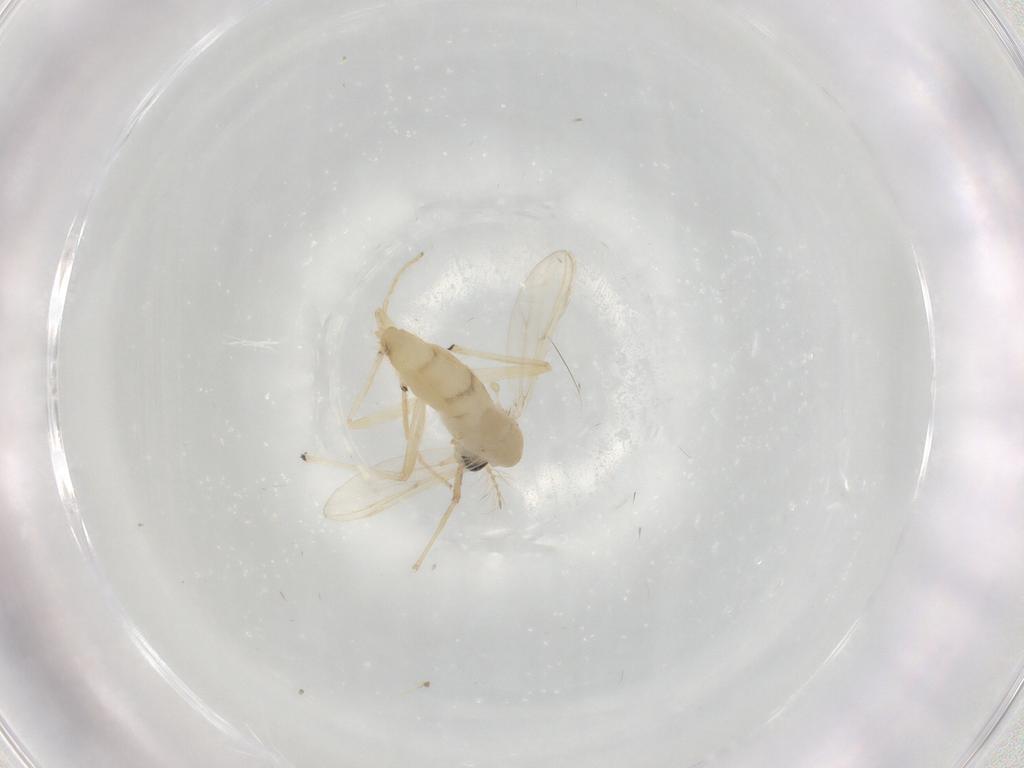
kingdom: Animalia
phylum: Arthropoda
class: Insecta
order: Diptera
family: Chironomidae
